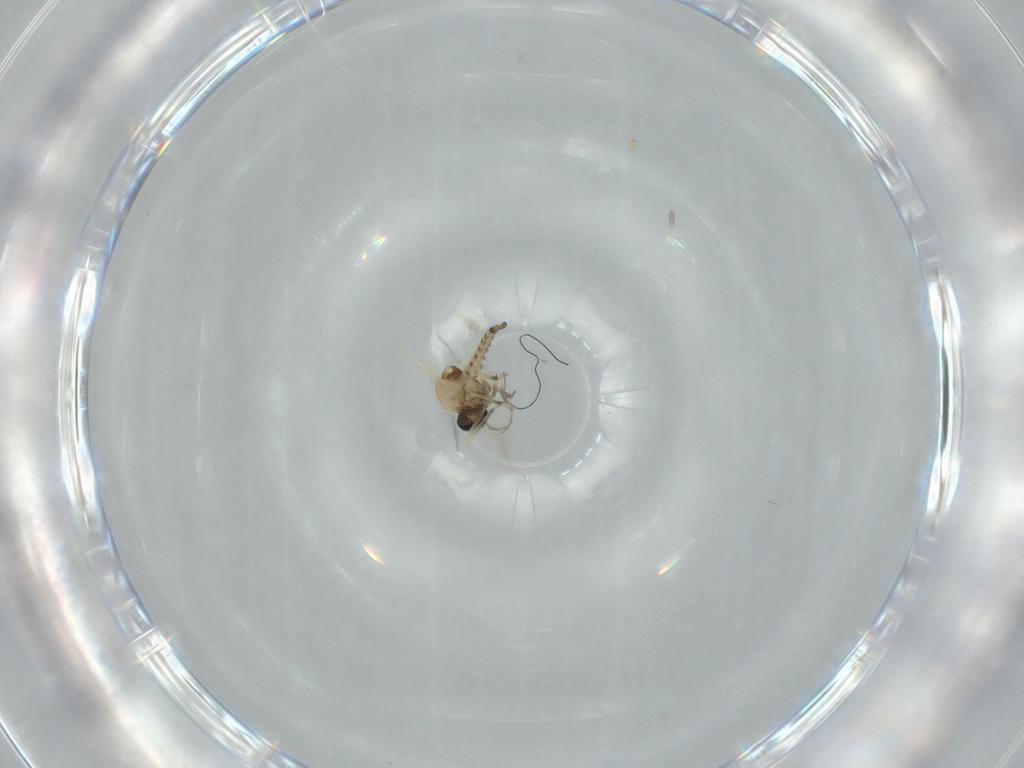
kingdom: Animalia
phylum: Arthropoda
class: Insecta
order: Diptera
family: Ceratopogonidae
